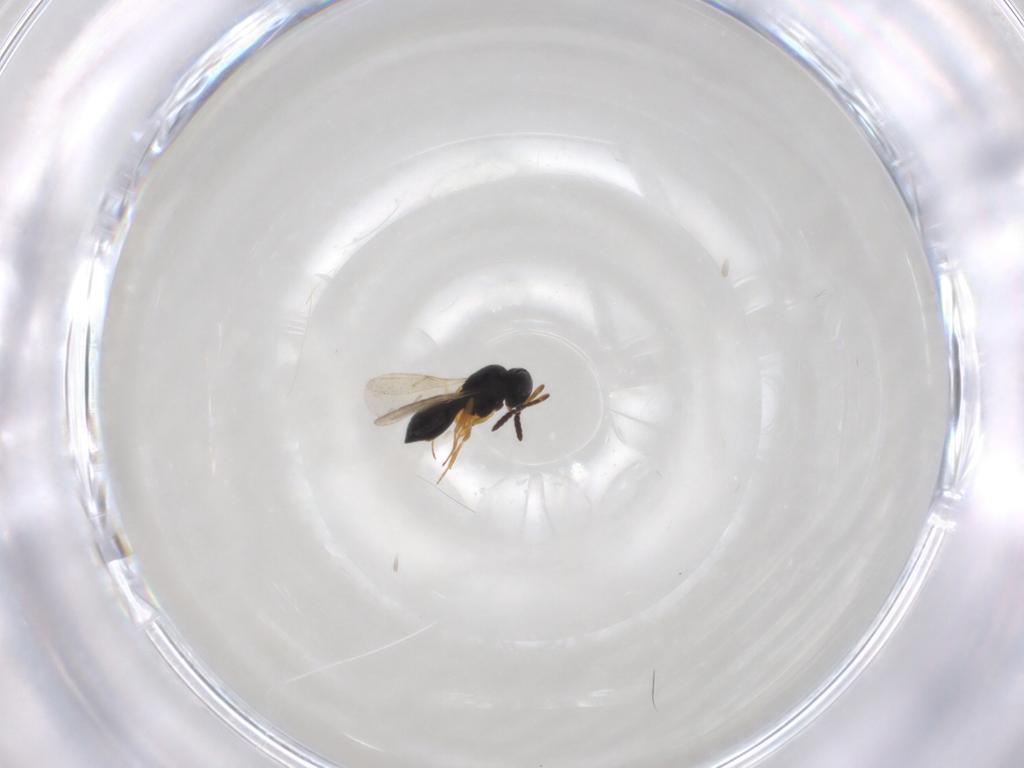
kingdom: Animalia
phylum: Arthropoda
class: Insecta
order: Hymenoptera
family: Scelionidae
